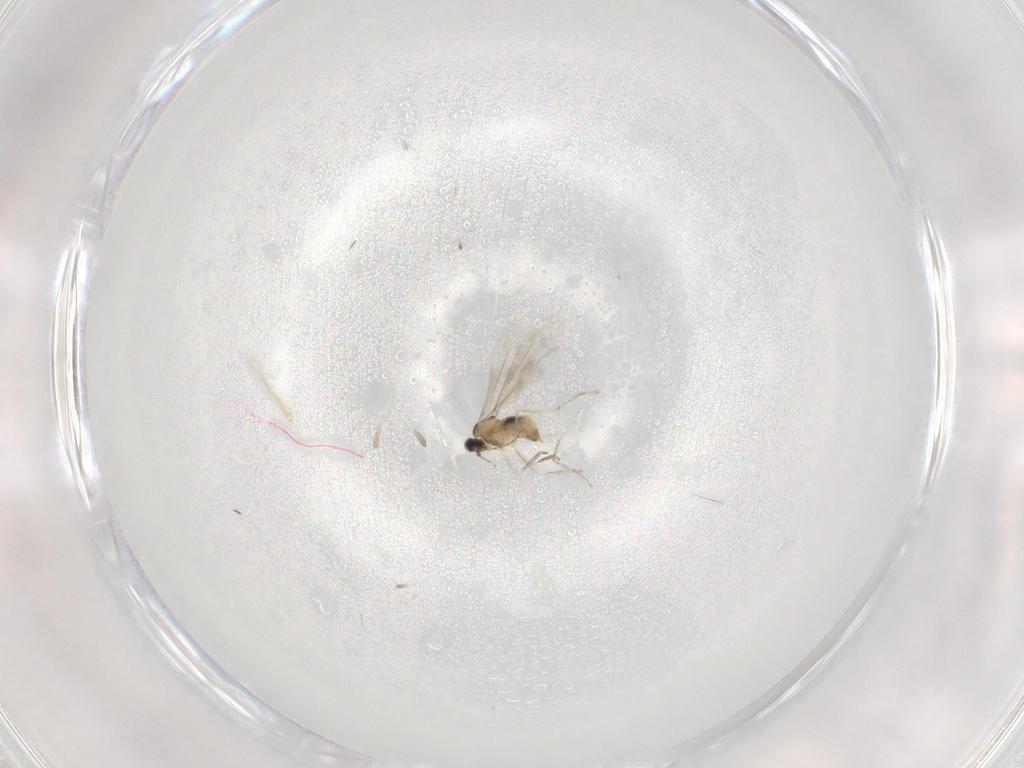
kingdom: Animalia
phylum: Arthropoda
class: Insecta
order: Diptera
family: Cecidomyiidae
